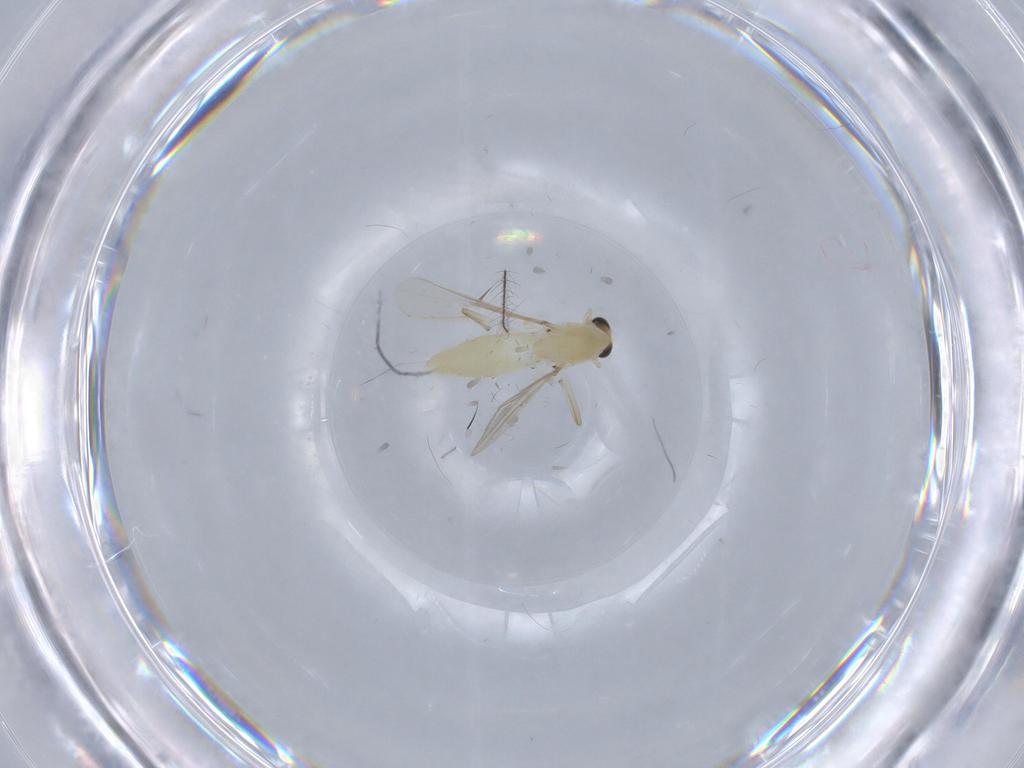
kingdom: Animalia
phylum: Arthropoda
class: Insecta
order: Diptera
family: Chironomidae
